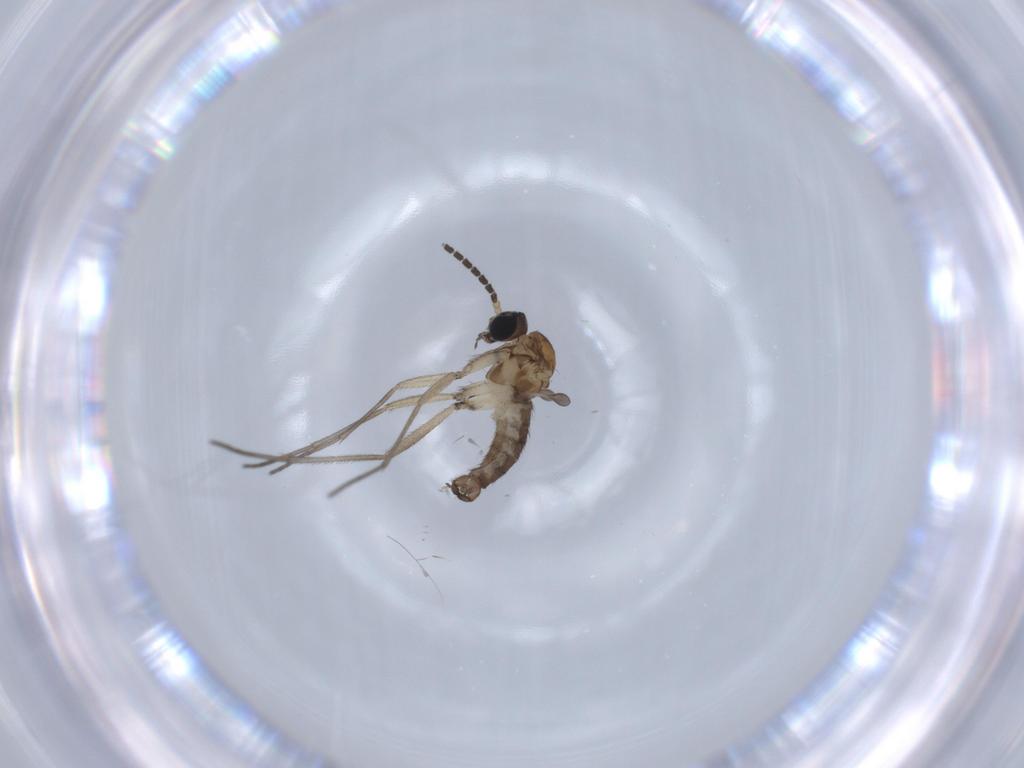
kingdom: Animalia
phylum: Arthropoda
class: Insecta
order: Diptera
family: Sciaridae
